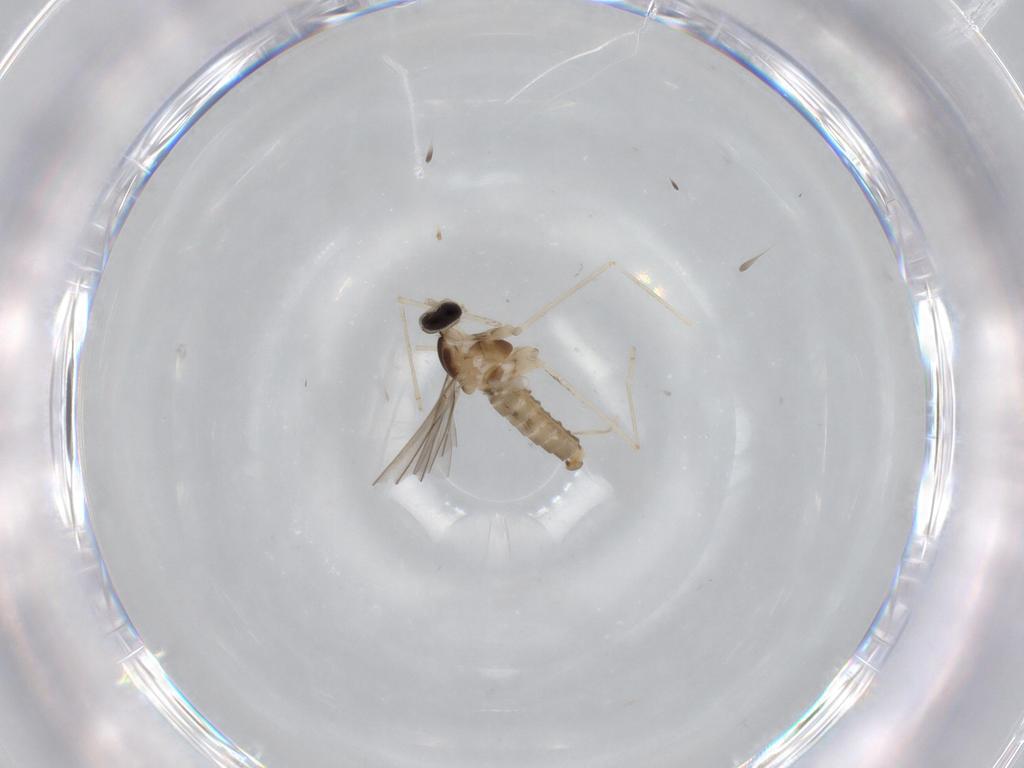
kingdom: Animalia
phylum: Arthropoda
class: Insecta
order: Diptera
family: Cecidomyiidae
